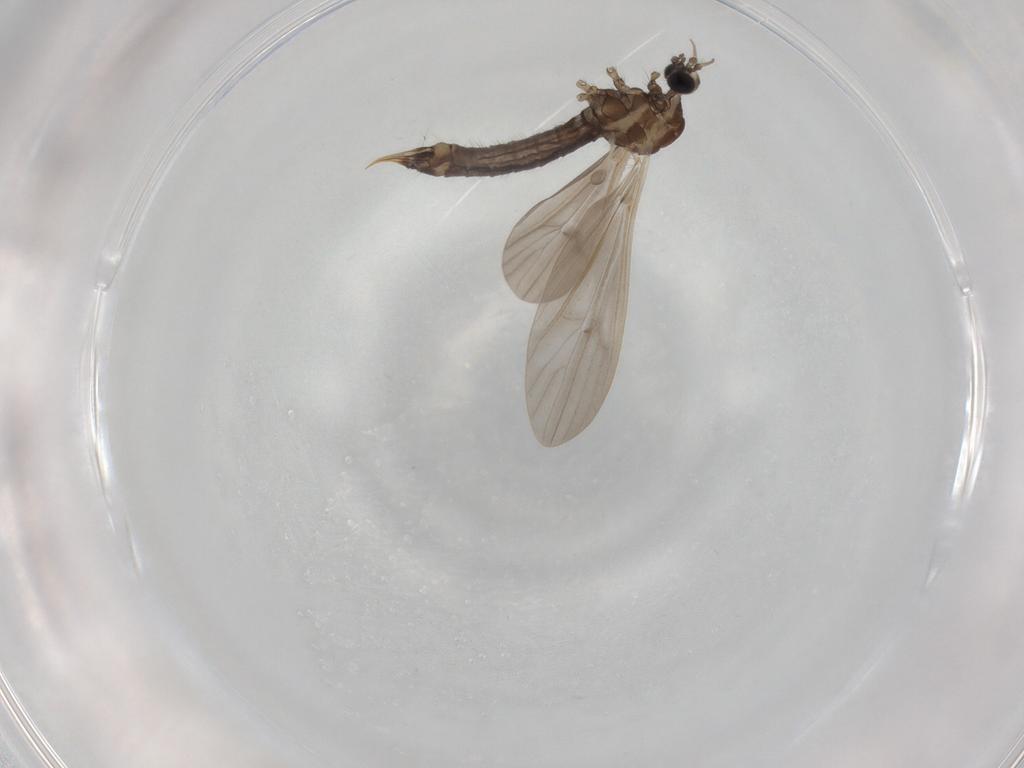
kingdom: Animalia
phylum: Arthropoda
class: Insecta
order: Diptera
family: Limoniidae
